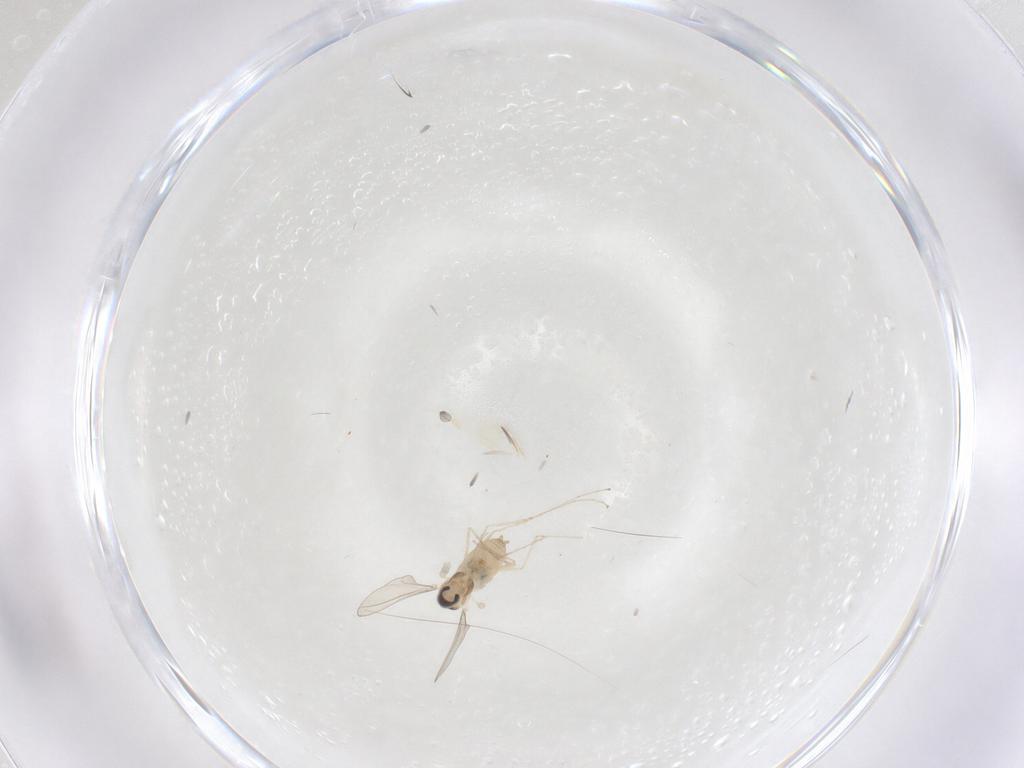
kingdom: Animalia
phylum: Arthropoda
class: Insecta
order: Diptera
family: Cecidomyiidae
